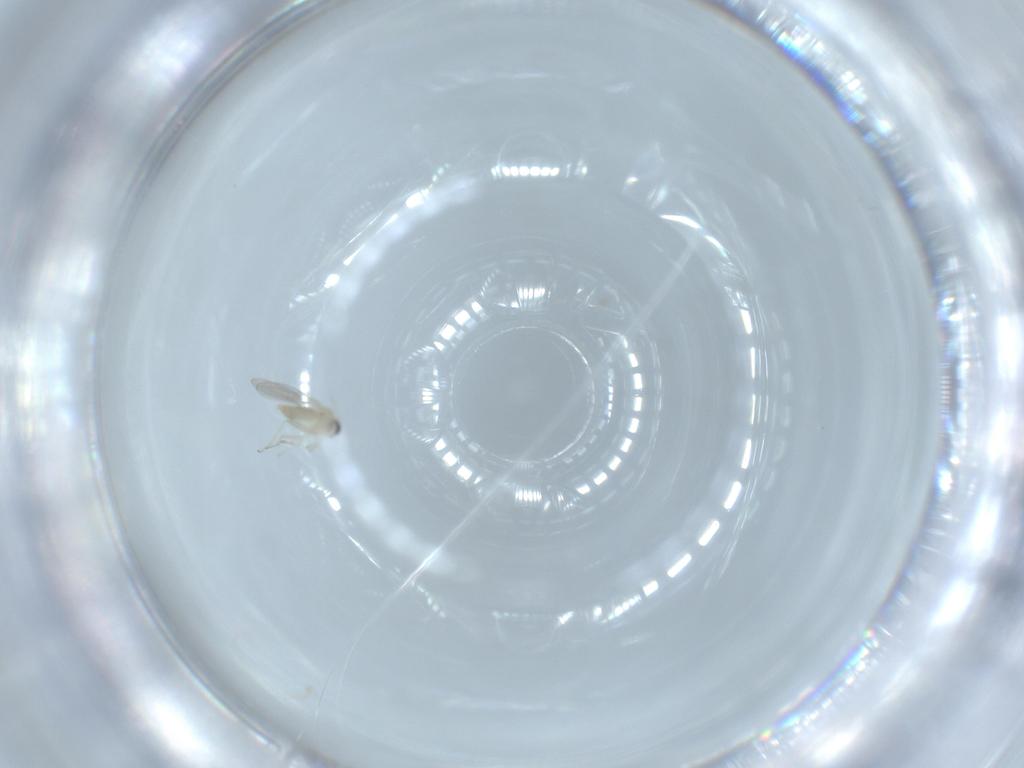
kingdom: Animalia
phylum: Arthropoda
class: Insecta
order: Diptera
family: Cecidomyiidae
